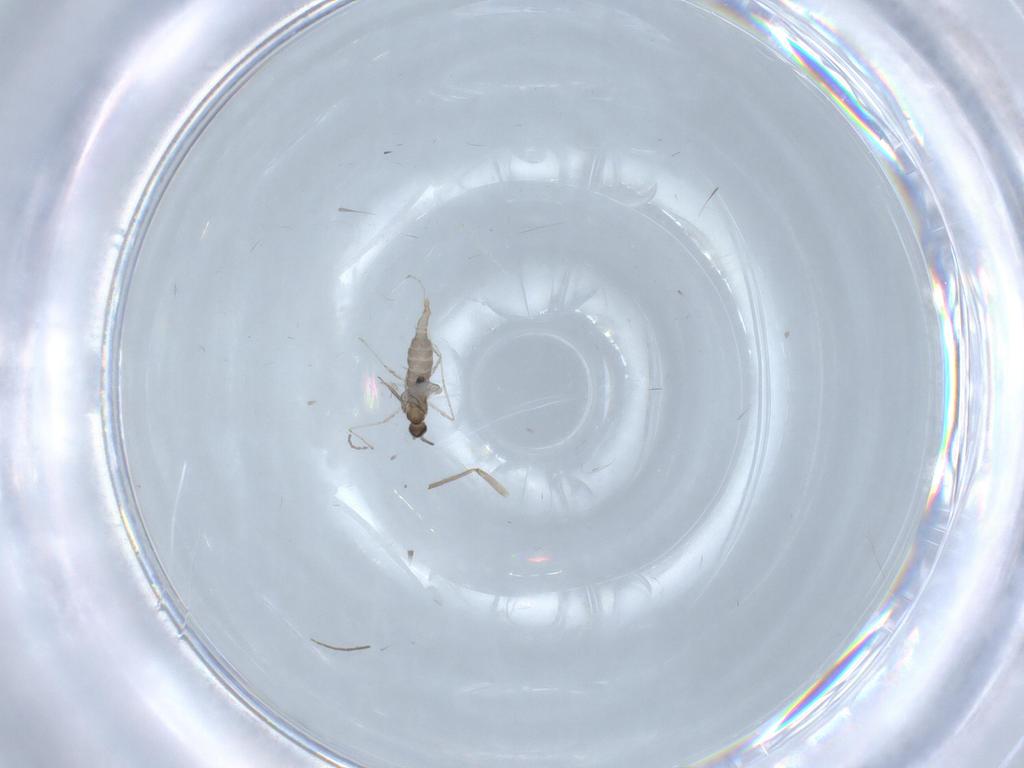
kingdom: Animalia
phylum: Arthropoda
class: Insecta
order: Diptera
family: Chironomidae
